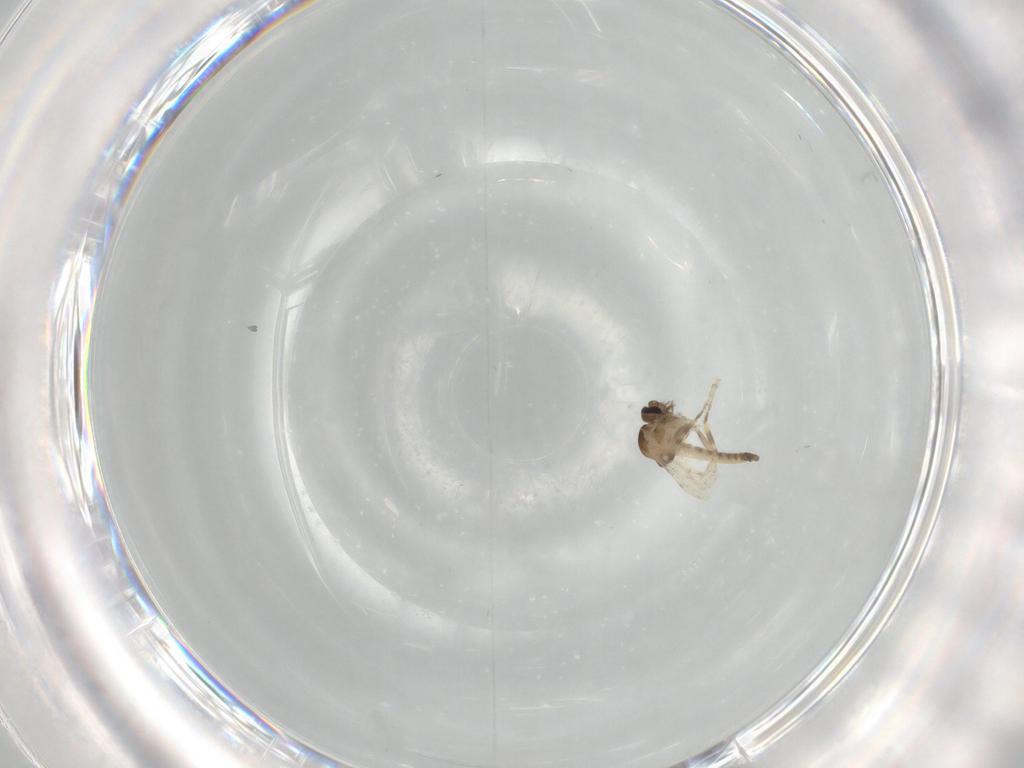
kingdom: Animalia
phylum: Arthropoda
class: Insecta
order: Diptera
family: Ceratopogonidae
